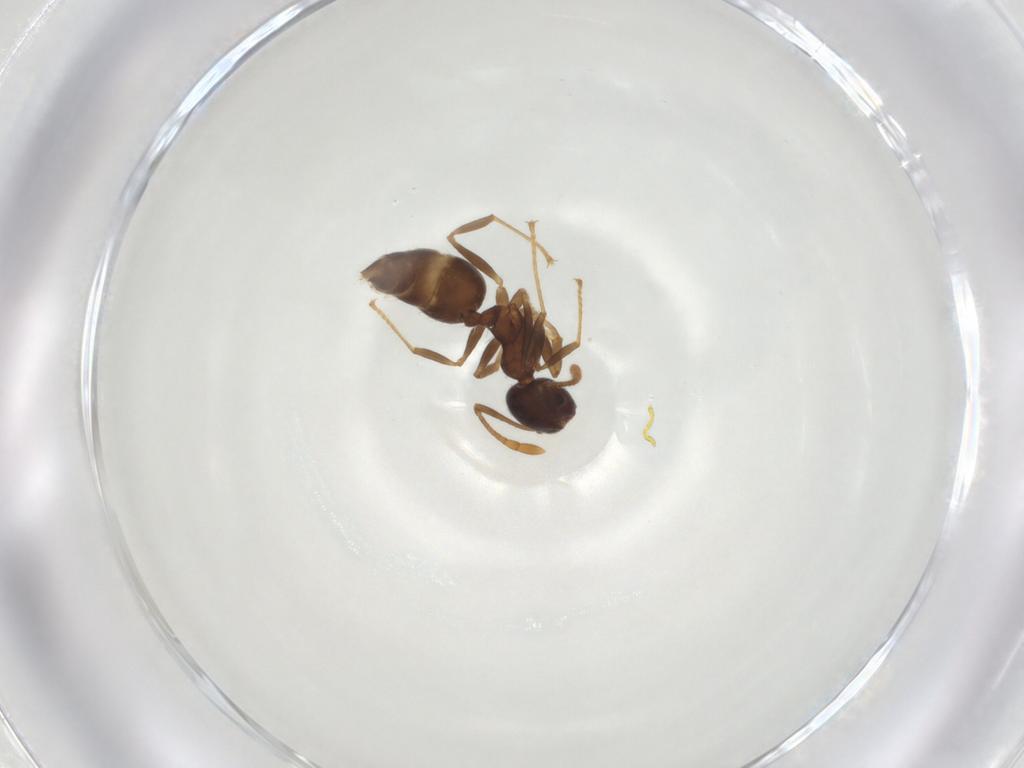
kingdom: Animalia
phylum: Arthropoda
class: Insecta
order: Hymenoptera
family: Formicidae
